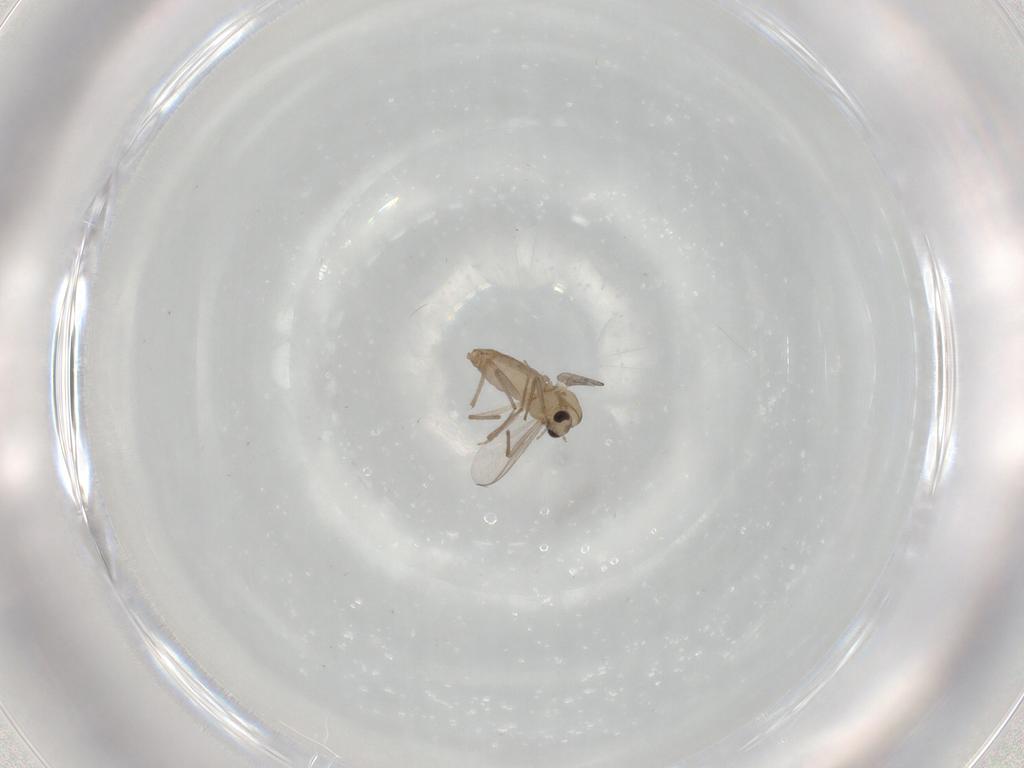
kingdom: Animalia
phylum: Arthropoda
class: Insecta
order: Diptera
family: Chironomidae
